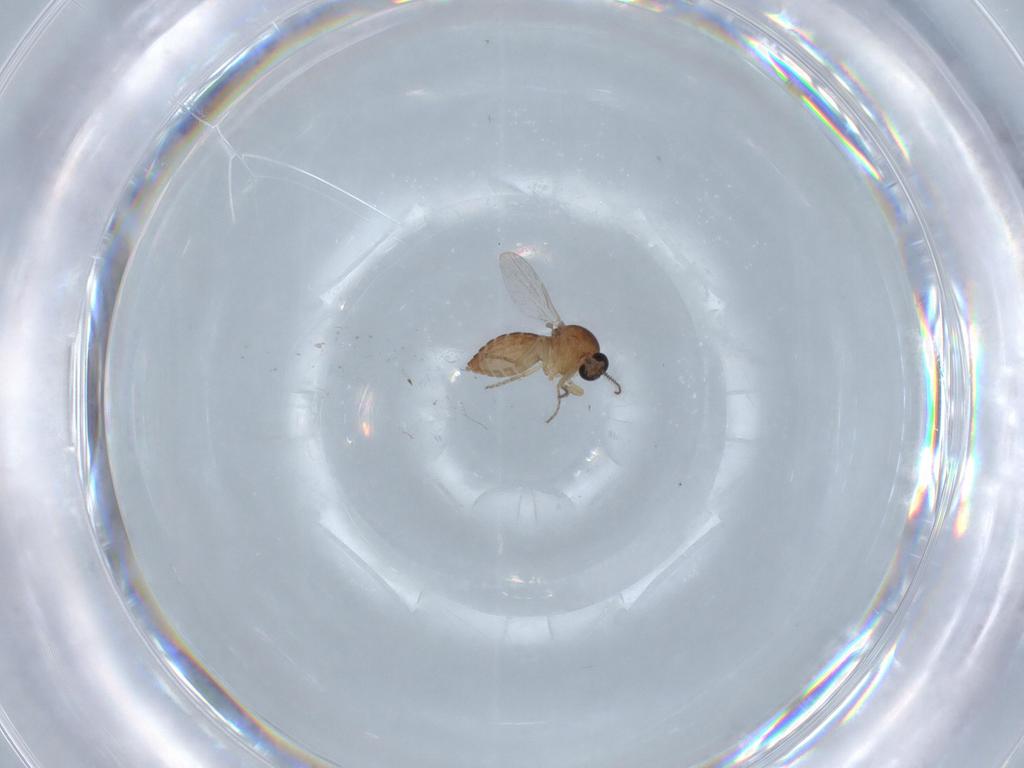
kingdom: Animalia
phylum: Arthropoda
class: Insecta
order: Diptera
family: Ceratopogonidae
